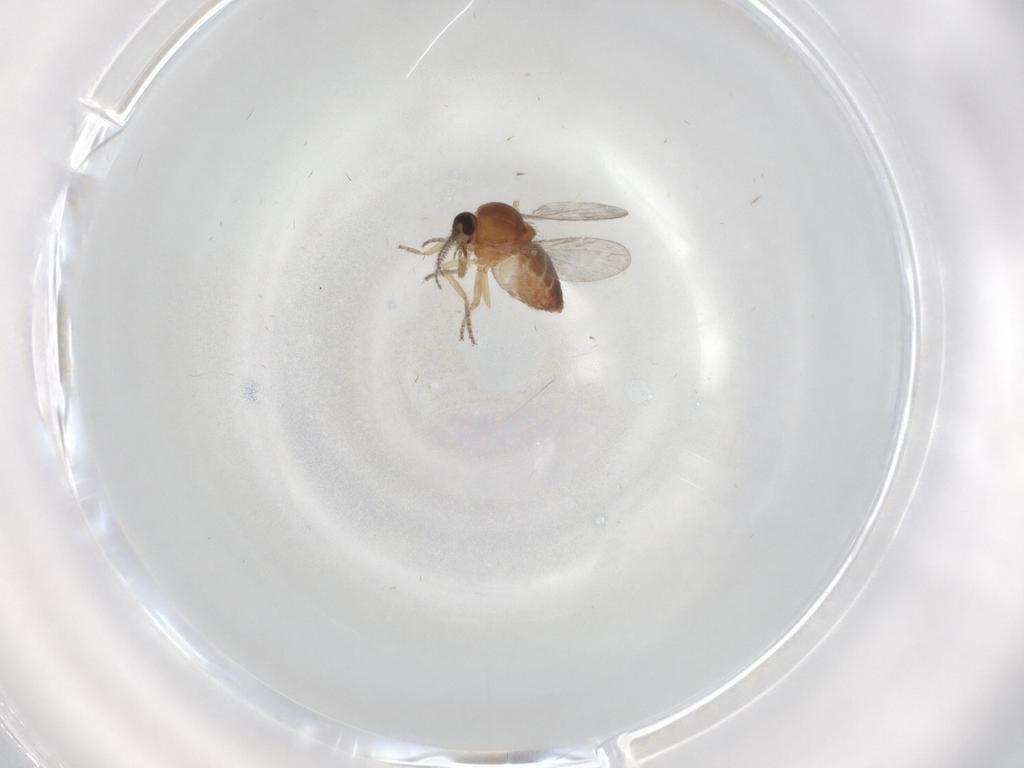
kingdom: Animalia
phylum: Arthropoda
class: Insecta
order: Diptera
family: Ceratopogonidae
